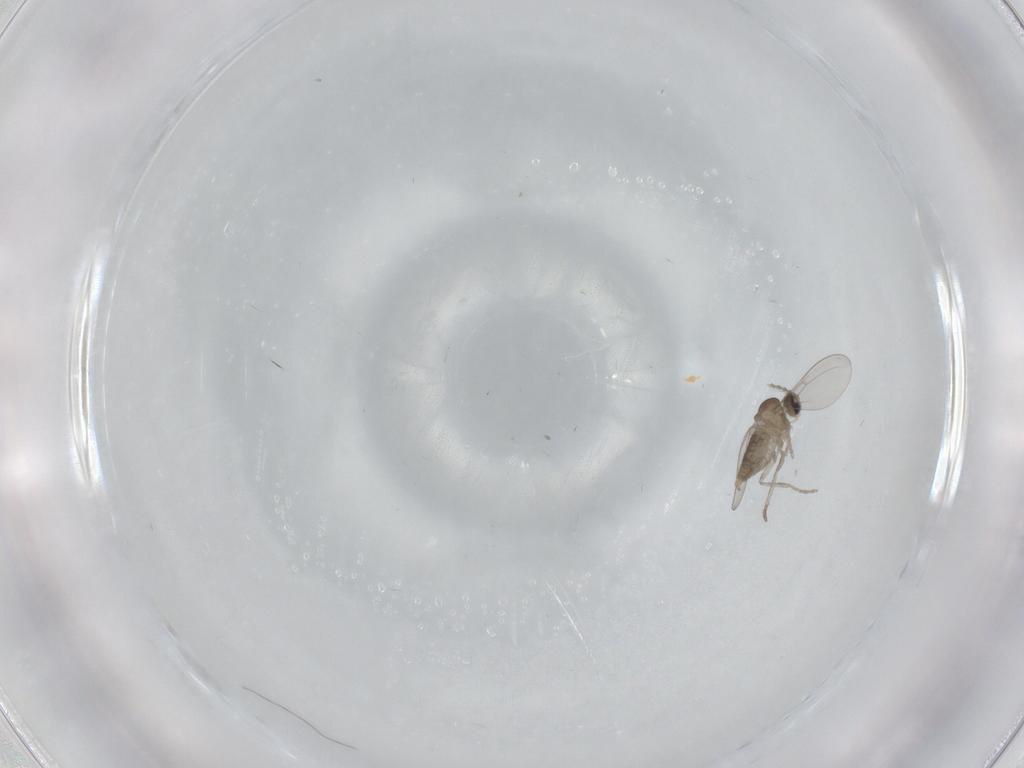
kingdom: Animalia
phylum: Arthropoda
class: Insecta
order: Diptera
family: Cecidomyiidae
